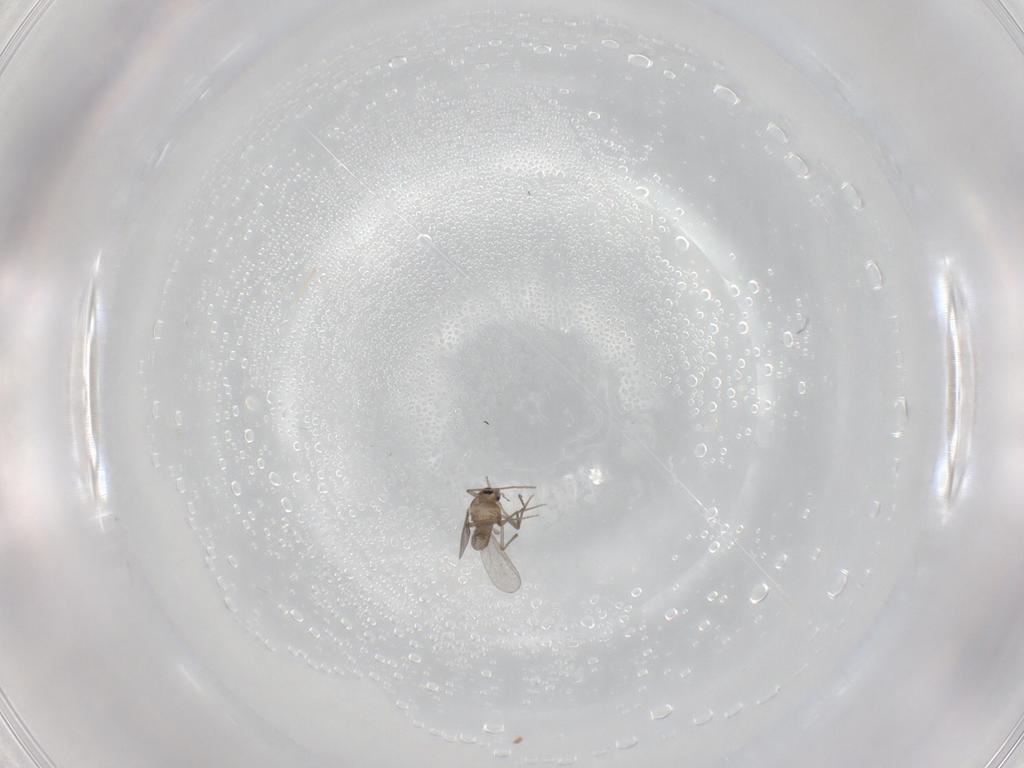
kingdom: Animalia
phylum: Arthropoda
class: Insecta
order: Diptera
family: Chironomidae
